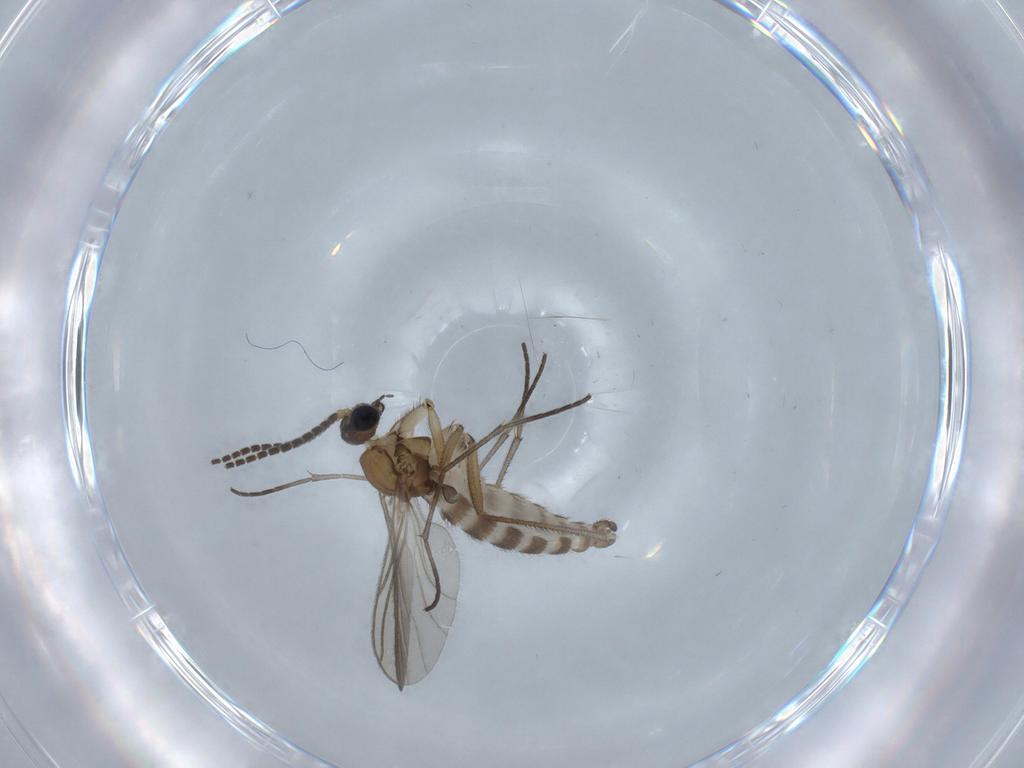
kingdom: Animalia
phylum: Arthropoda
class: Insecta
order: Diptera
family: Sciaridae
